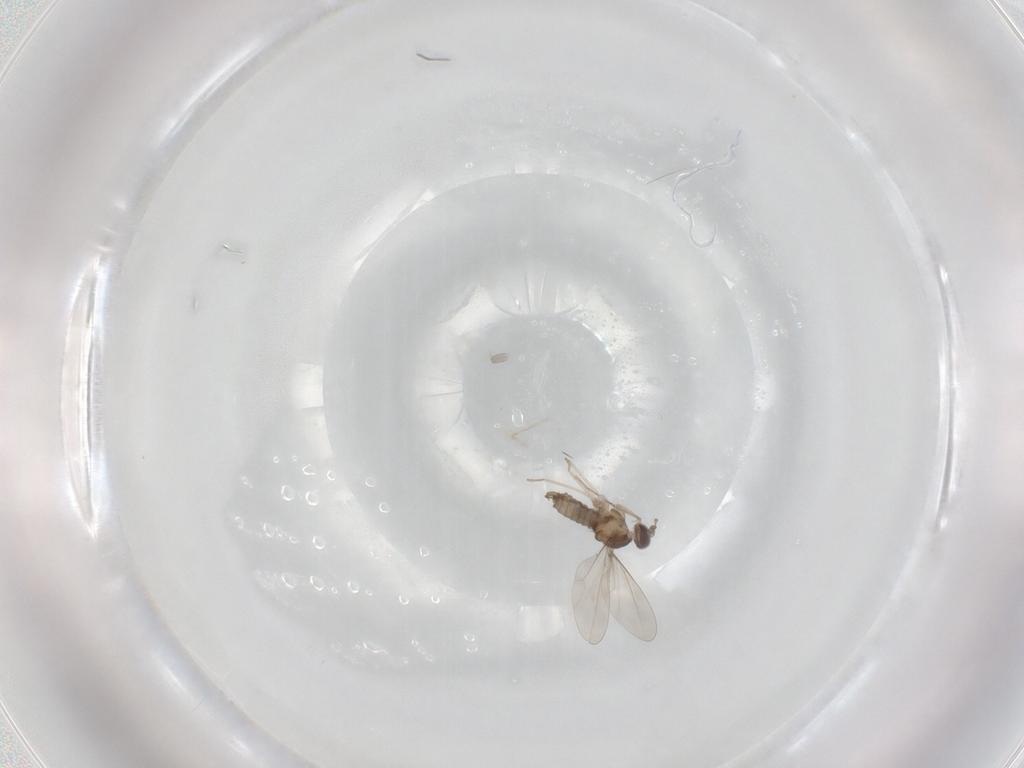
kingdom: Animalia
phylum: Arthropoda
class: Insecta
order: Diptera
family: Cecidomyiidae
